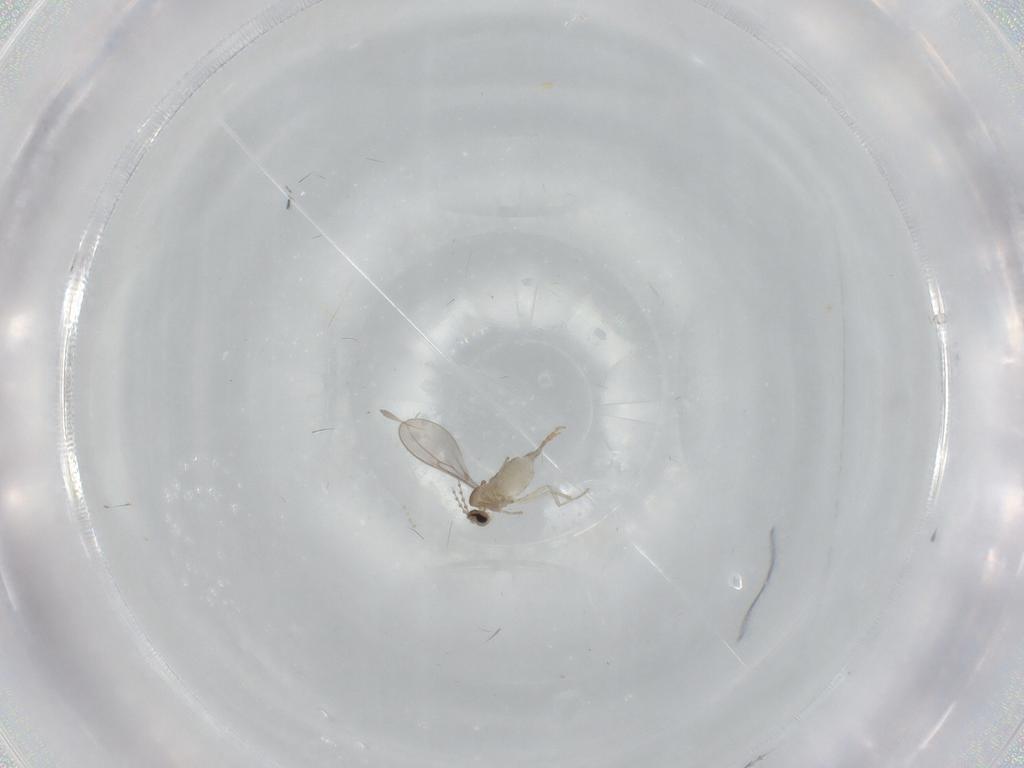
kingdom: Animalia
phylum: Arthropoda
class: Insecta
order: Diptera
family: Cecidomyiidae
